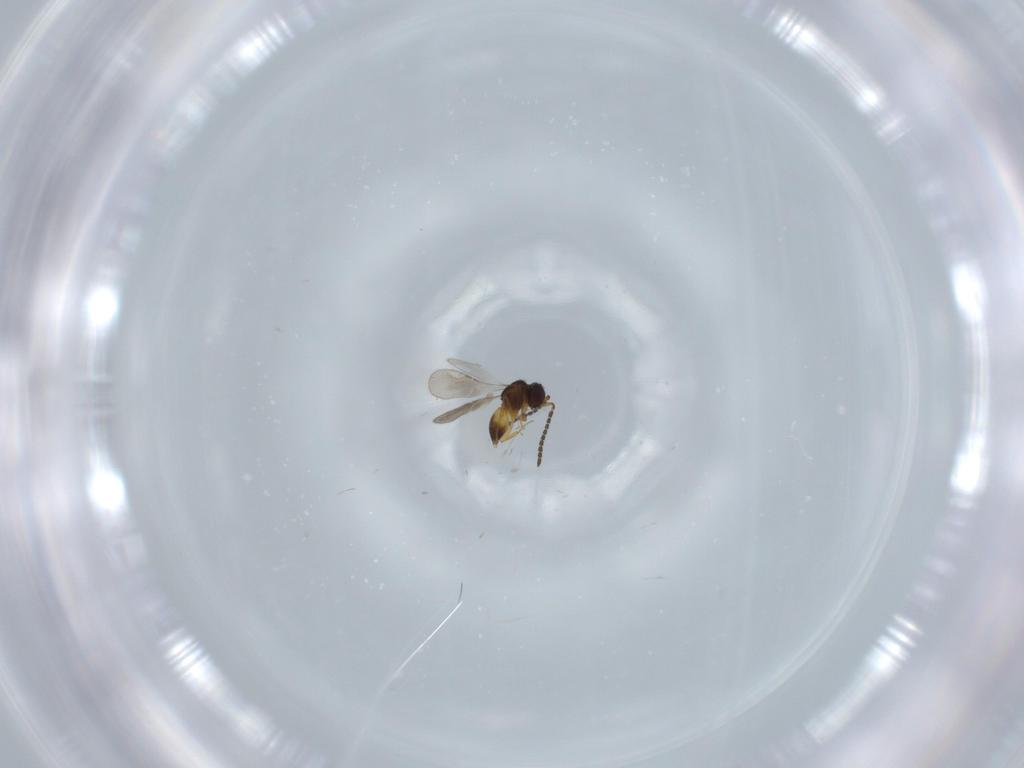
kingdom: Animalia
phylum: Arthropoda
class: Insecta
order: Hymenoptera
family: Ceraphronidae
